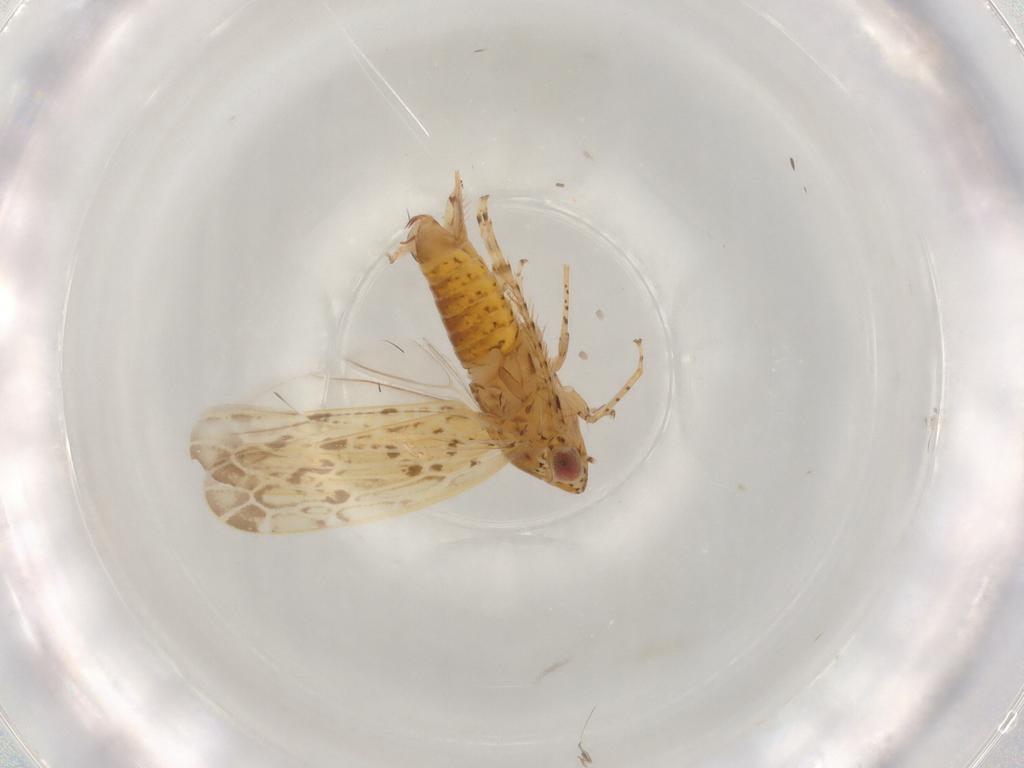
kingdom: Animalia
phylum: Arthropoda
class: Insecta
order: Hemiptera
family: Cicadellidae
